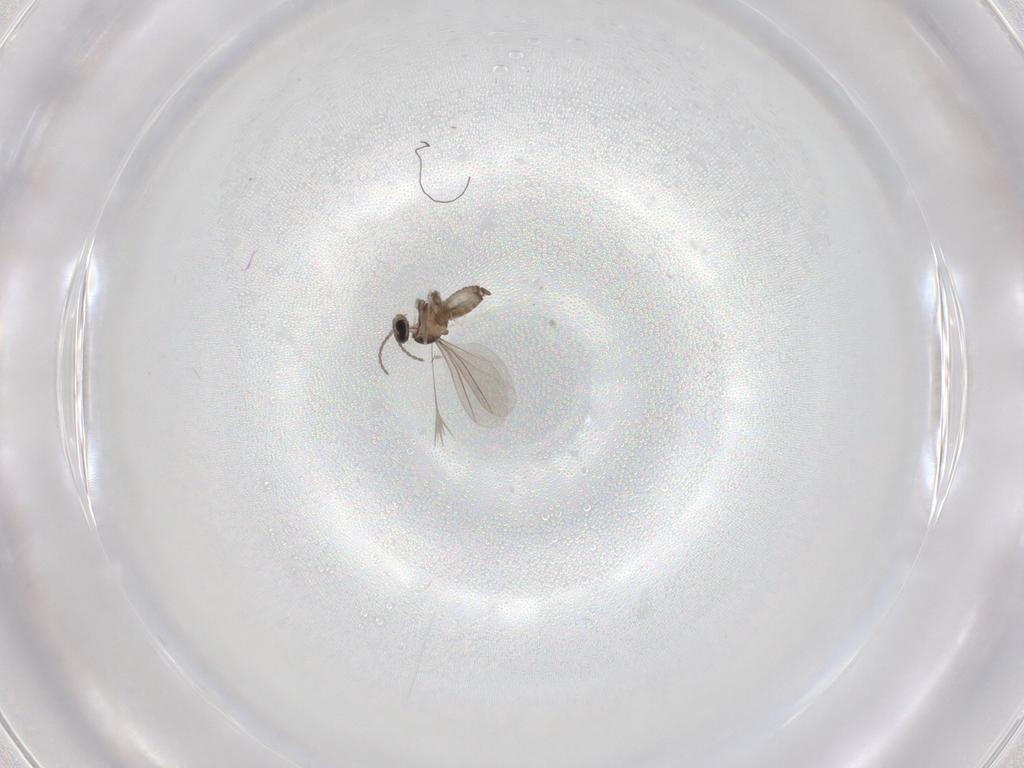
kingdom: Animalia
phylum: Arthropoda
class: Insecta
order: Diptera
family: Cecidomyiidae
